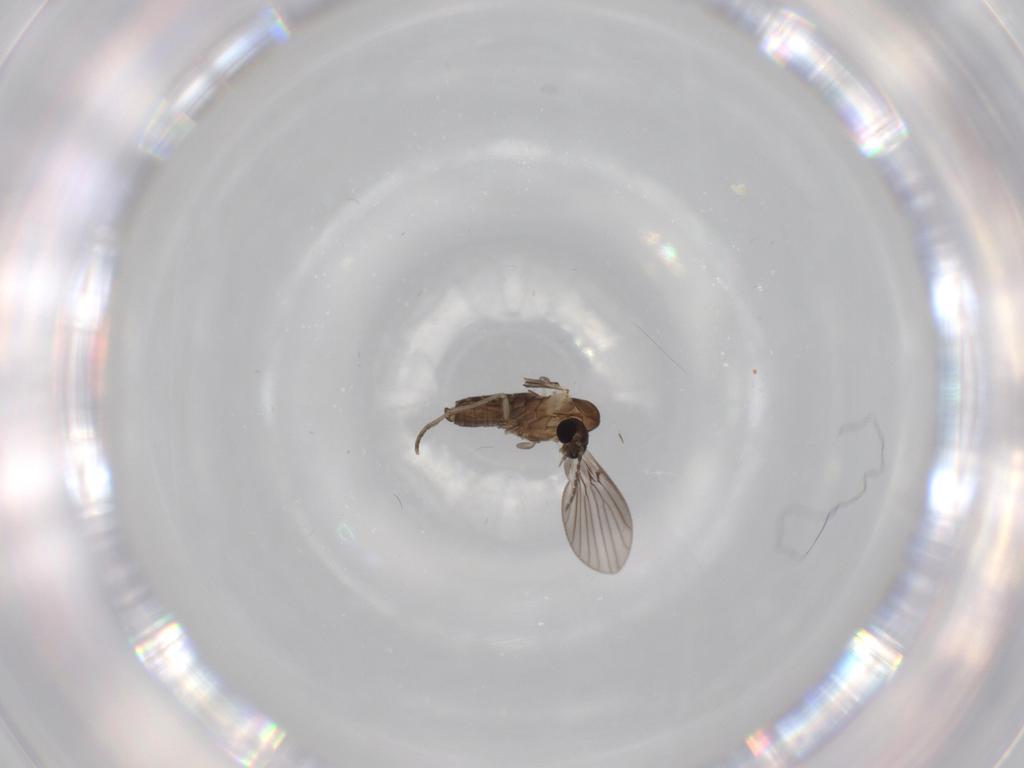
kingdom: Animalia
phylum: Arthropoda
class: Insecta
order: Diptera
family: Psychodidae
